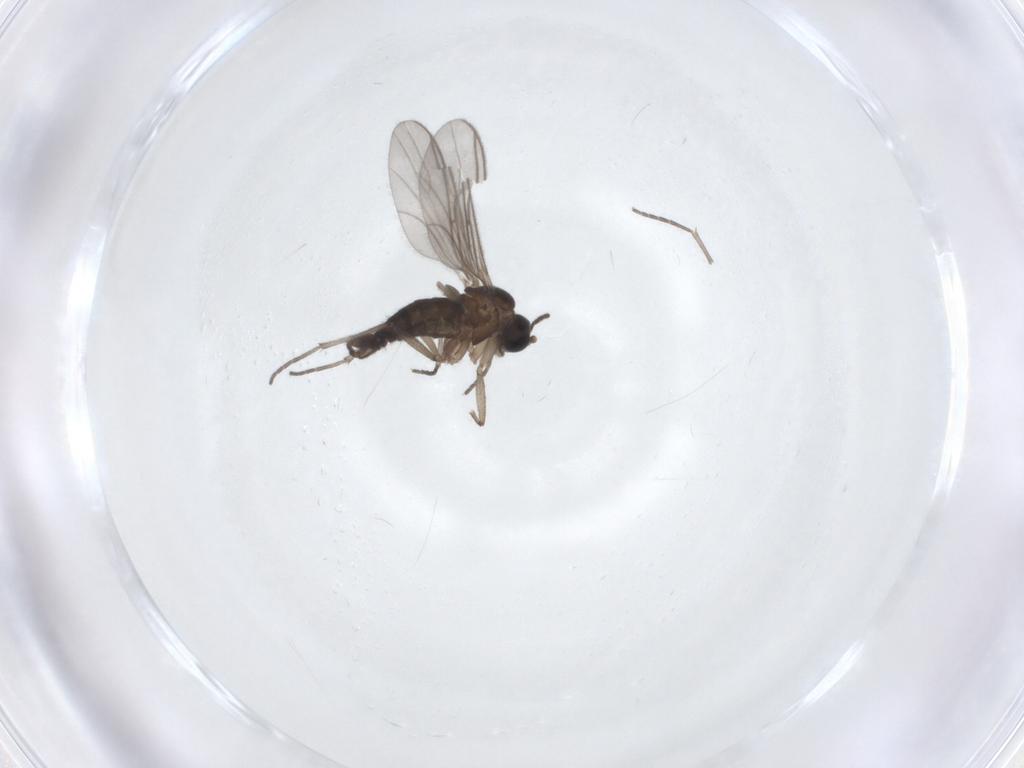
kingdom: Animalia
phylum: Arthropoda
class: Insecta
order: Diptera
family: Sciaridae
